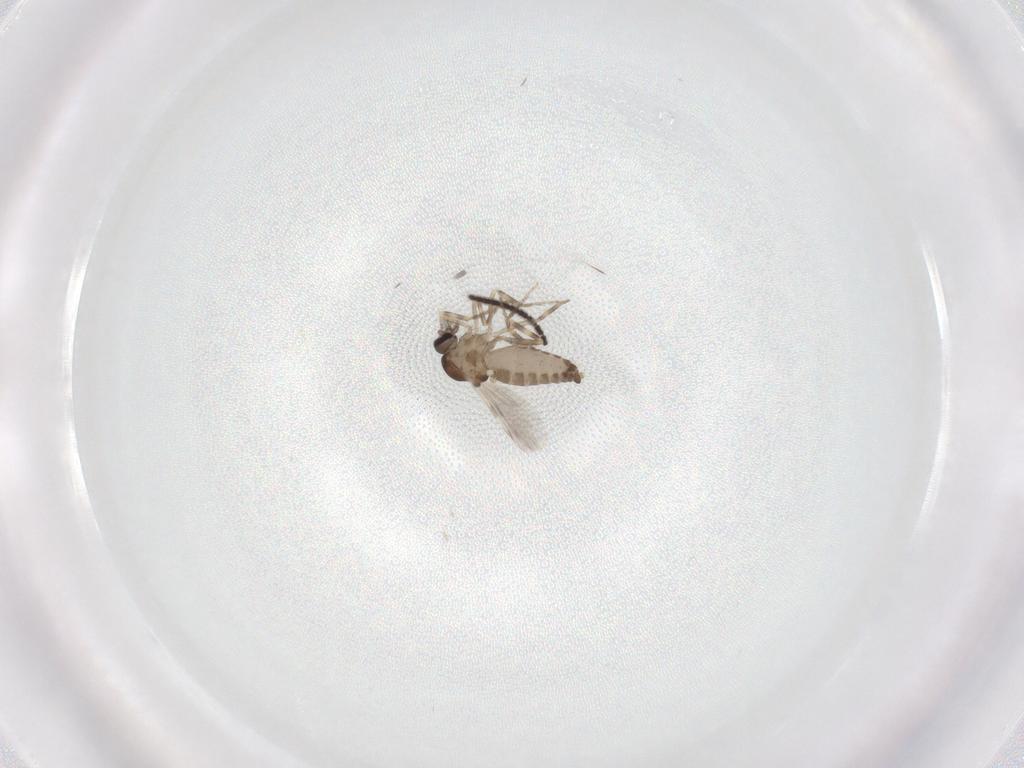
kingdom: Animalia
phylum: Arthropoda
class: Insecta
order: Diptera
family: Ceratopogonidae
